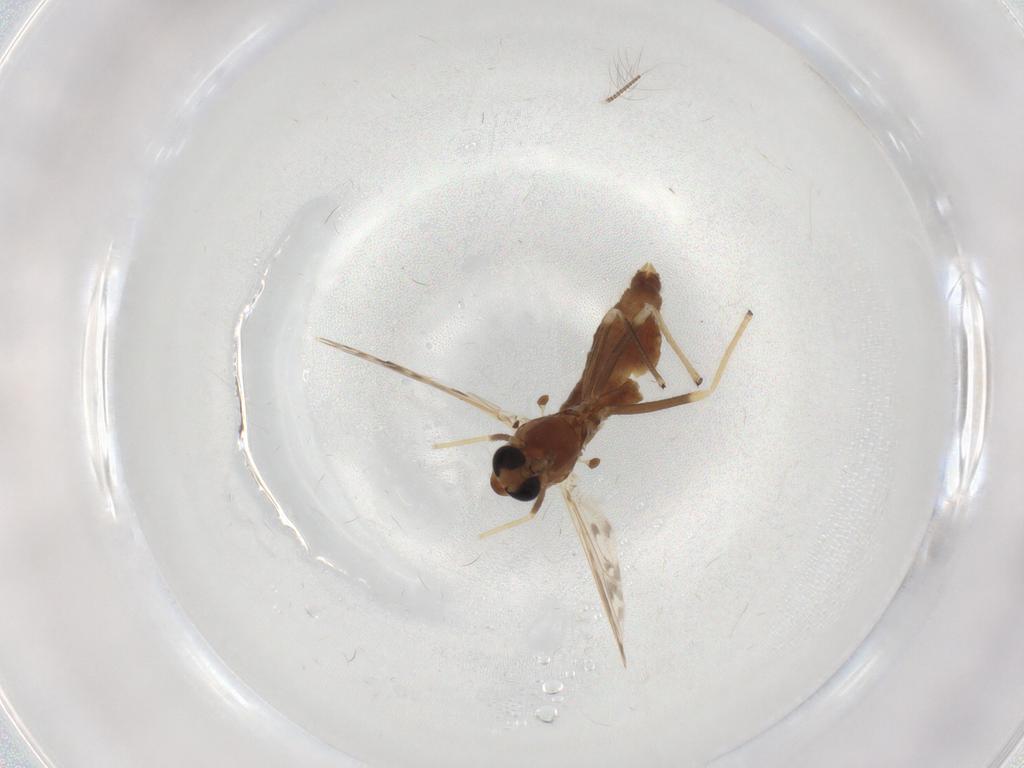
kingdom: Animalia
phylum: Arthropoda
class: Insecta
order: Diptera
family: Chironomidae
